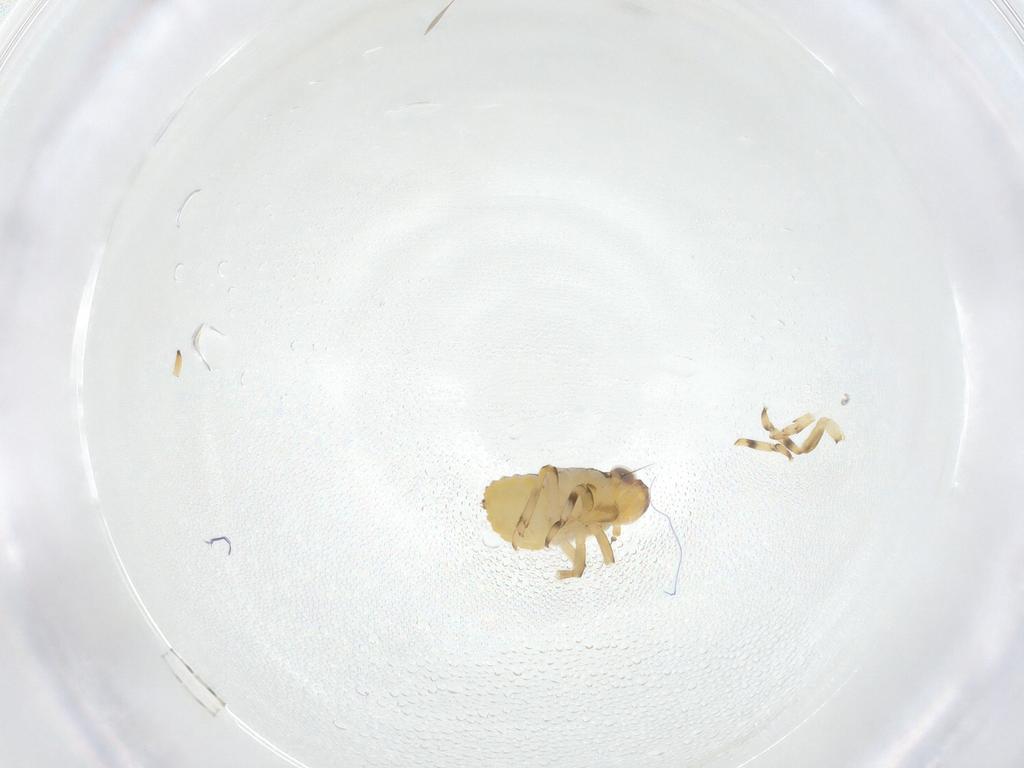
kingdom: Animalia
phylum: Arthropoda
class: Insecta
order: Hemiptera
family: Issidae
